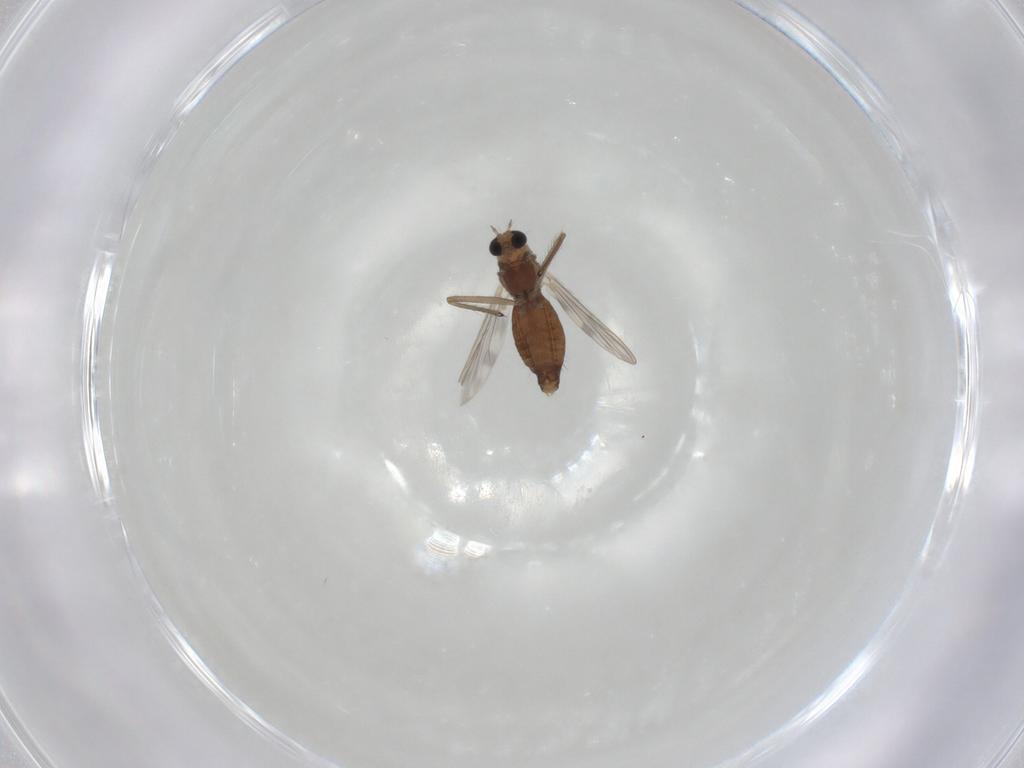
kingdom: Animalia
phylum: Arthropoda
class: Insecta
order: Diptera
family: Chironomidae
